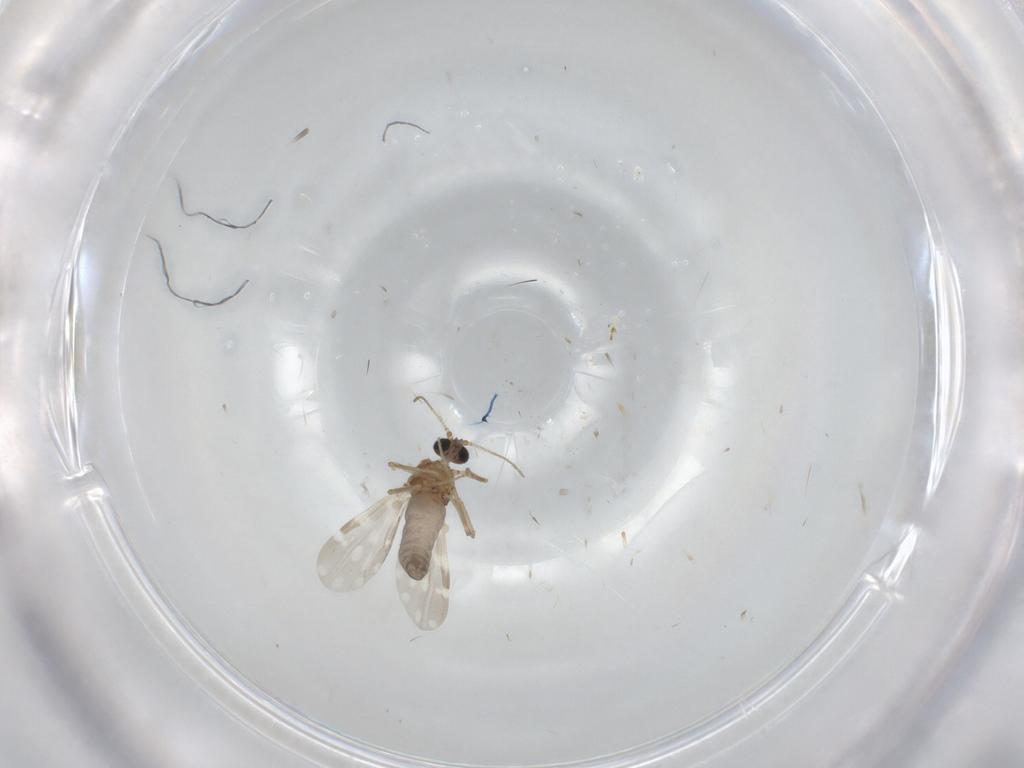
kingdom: Animalia
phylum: Arthropoda
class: Insecta
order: Diptera
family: Ceratopogonidae
